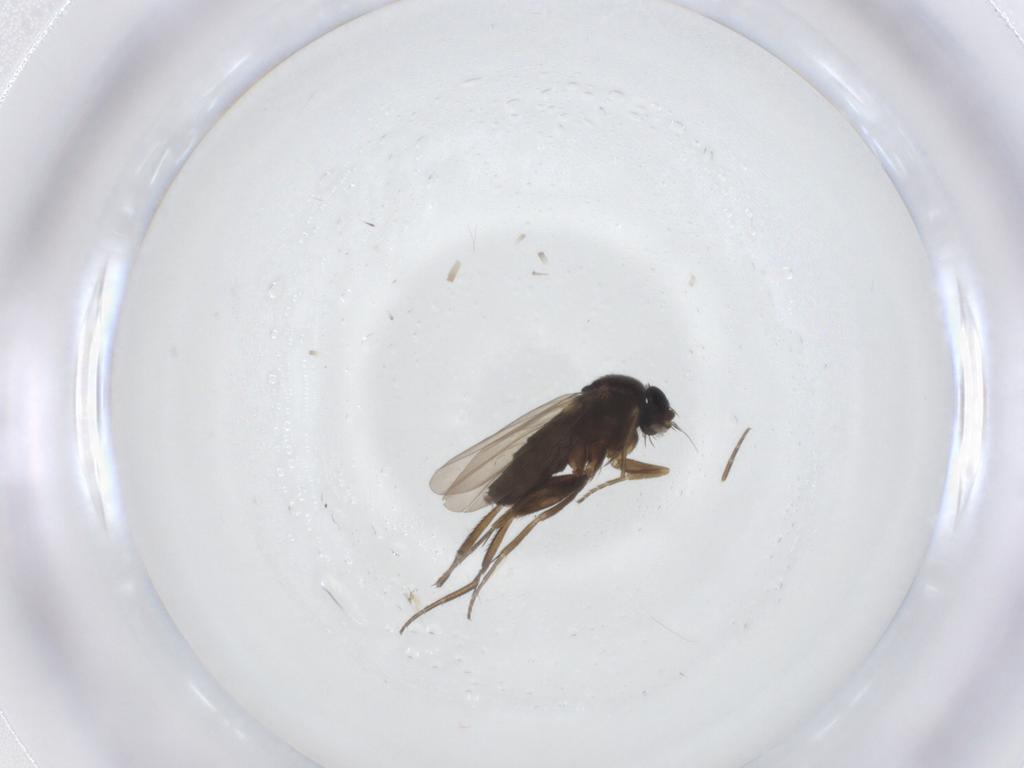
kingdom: Animalia
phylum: Arthropoda
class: Insecta
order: Diptera
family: Phoridae
